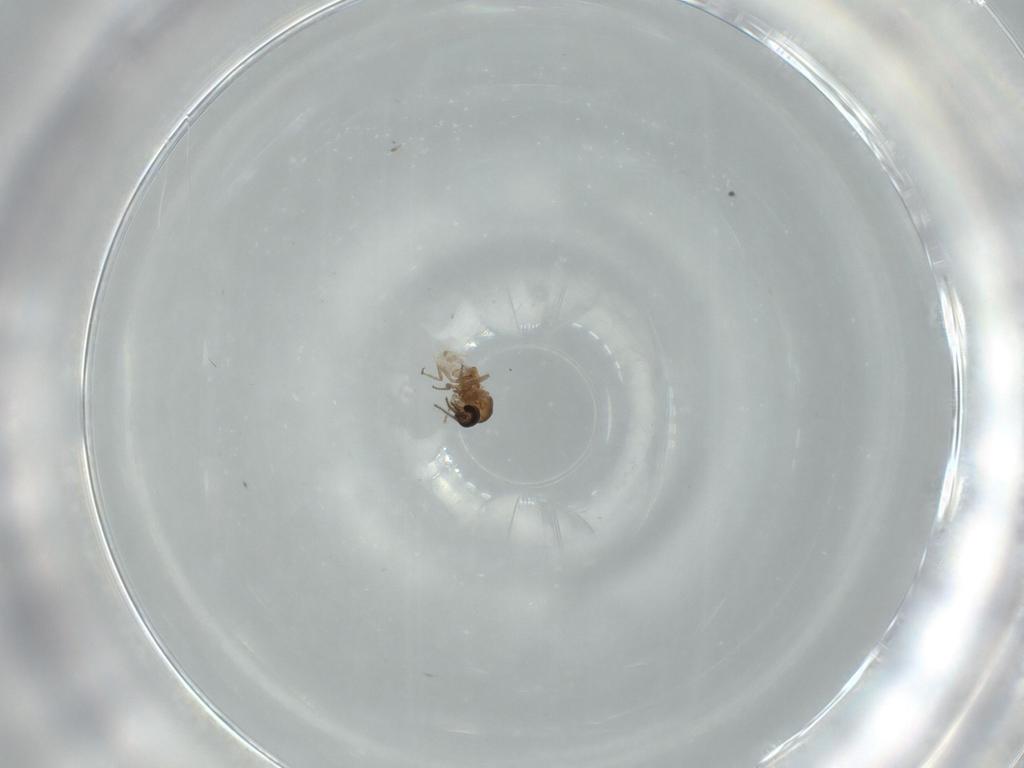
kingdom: Animalia
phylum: Arthropoda
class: Insecta
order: Diptera
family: Ceratopogonidae
